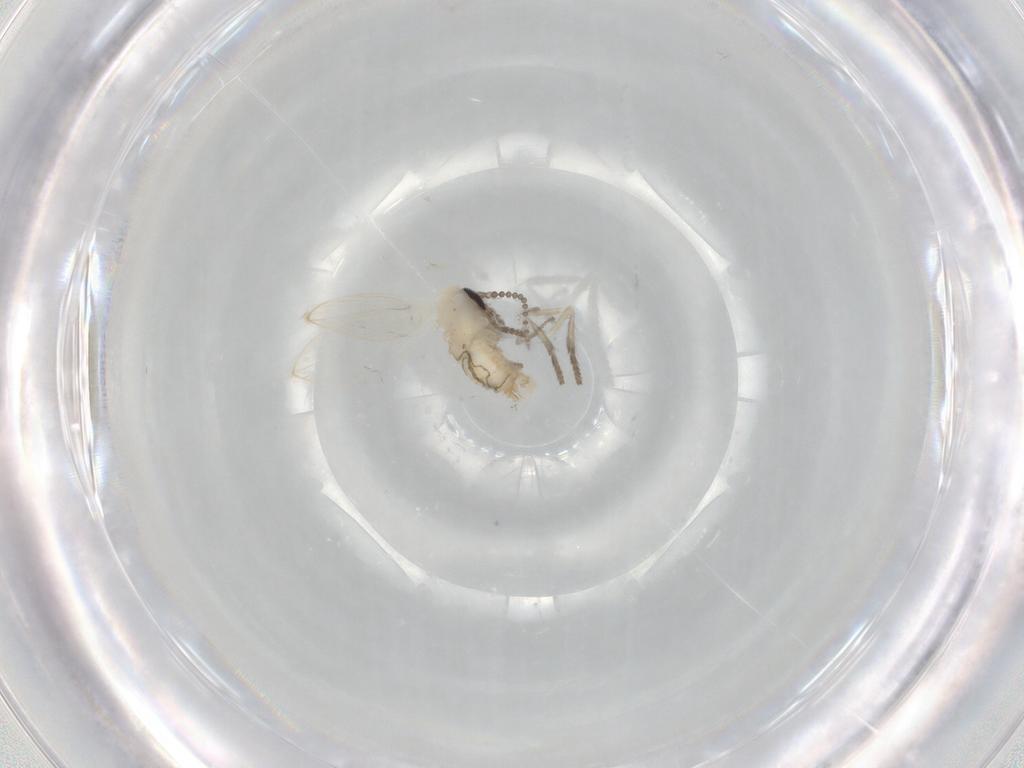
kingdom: Animalia
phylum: Arthropoda
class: Insecta
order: Diptera
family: Psychodidae
